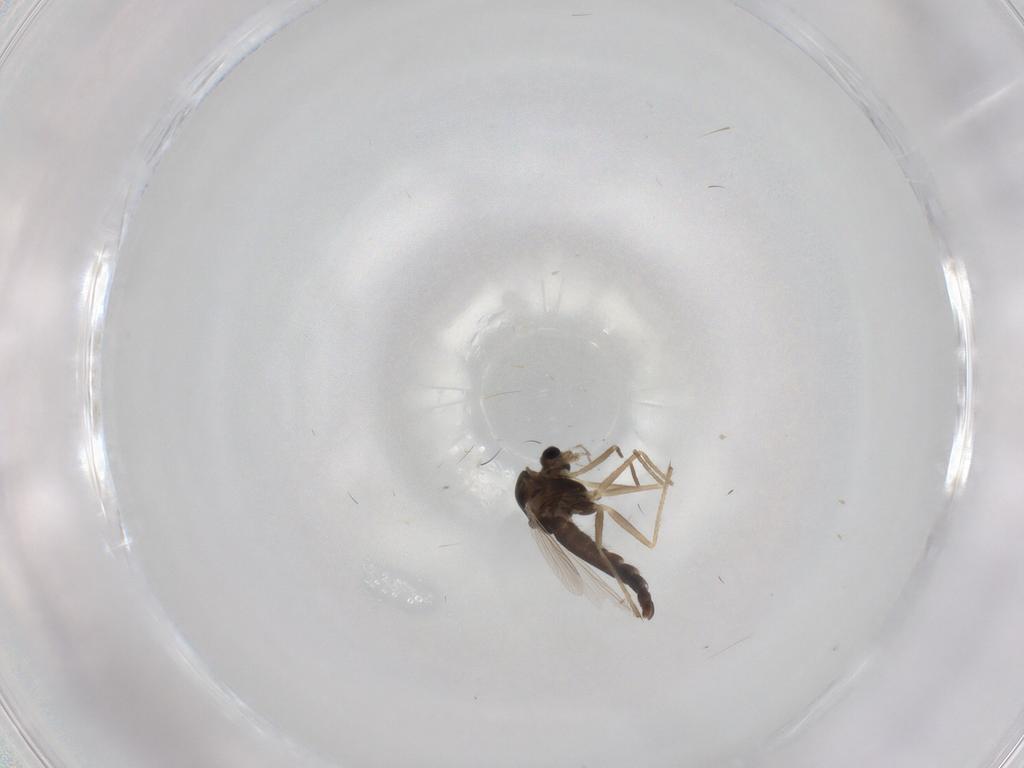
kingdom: Animalia
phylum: Arthropoda
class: Insecta
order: Diptera
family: Chironomidae
